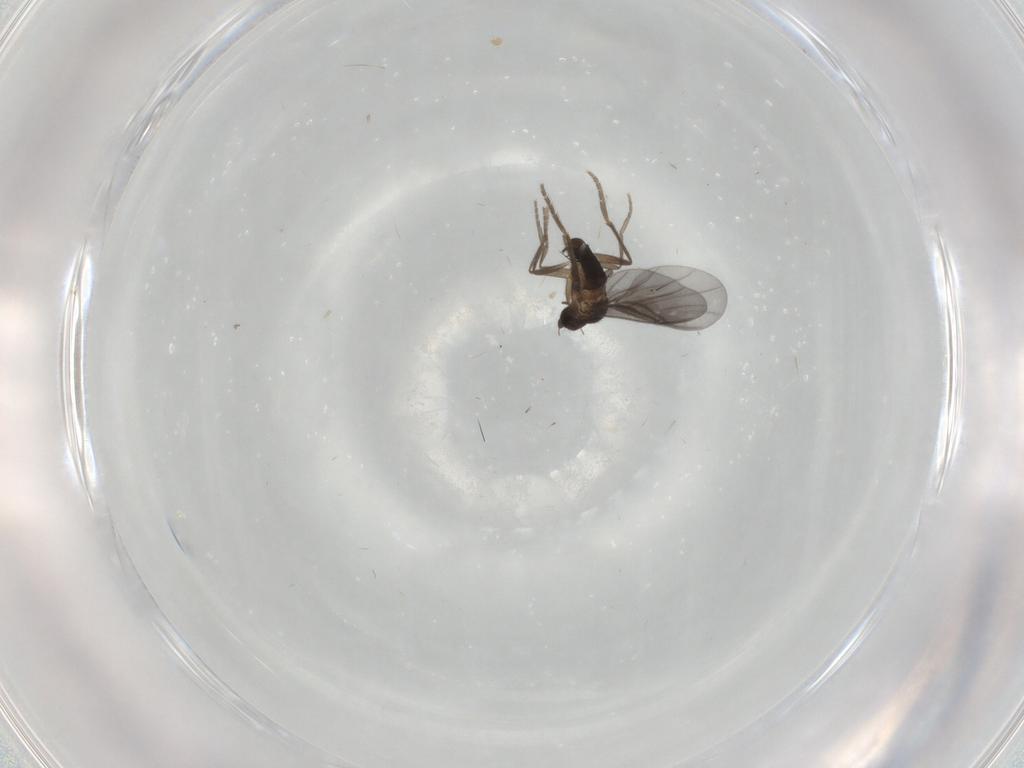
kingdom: Animalia
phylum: Arthropoda
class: Insecta
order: Diptera
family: Phoridae
